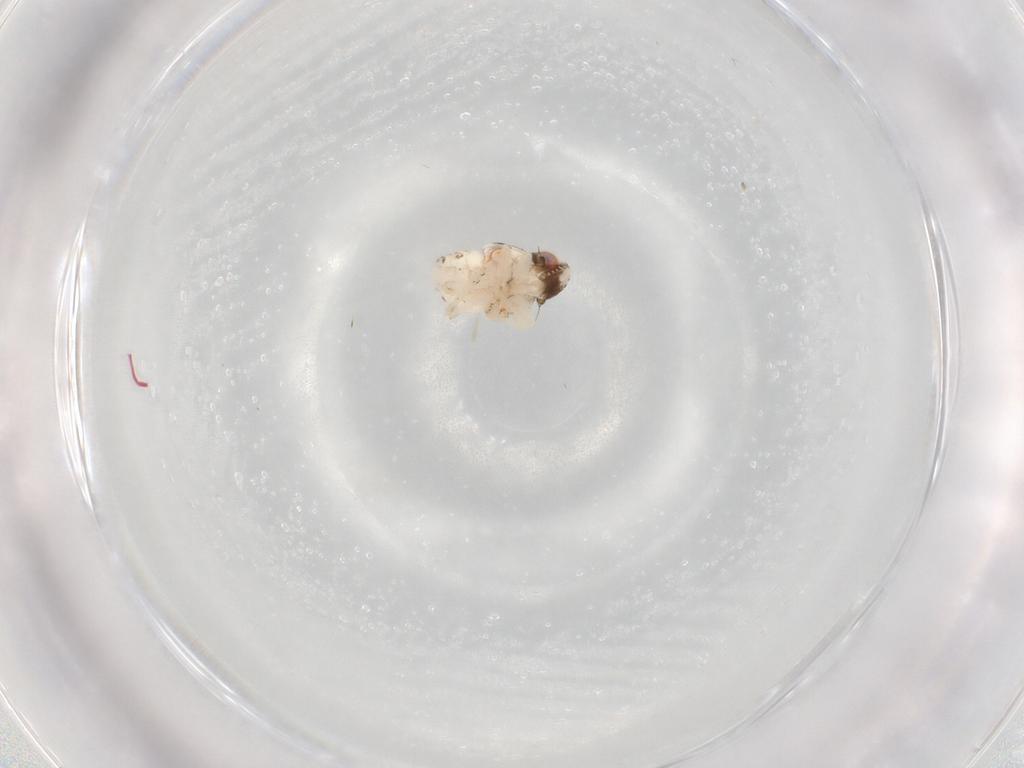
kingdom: Animalia
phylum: Arthropoda
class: Insecta
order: Hemiptera
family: Nogodinidae
